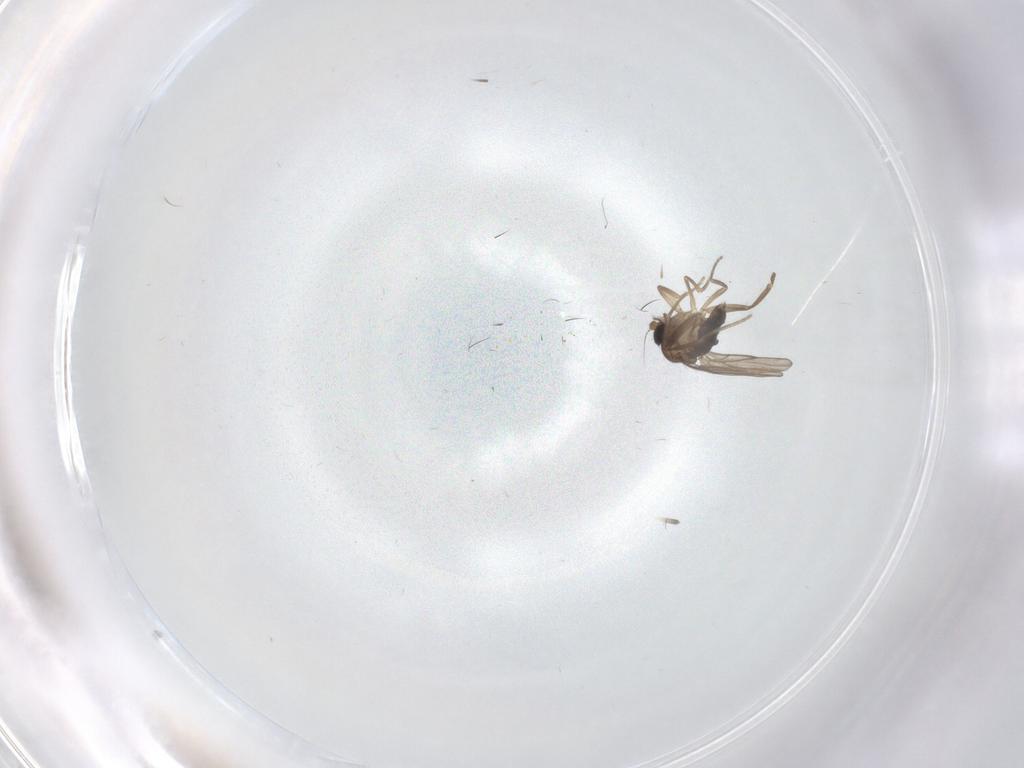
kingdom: Animalia
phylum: Arthropoda
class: Insecta
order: Diptera
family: Phoridae
